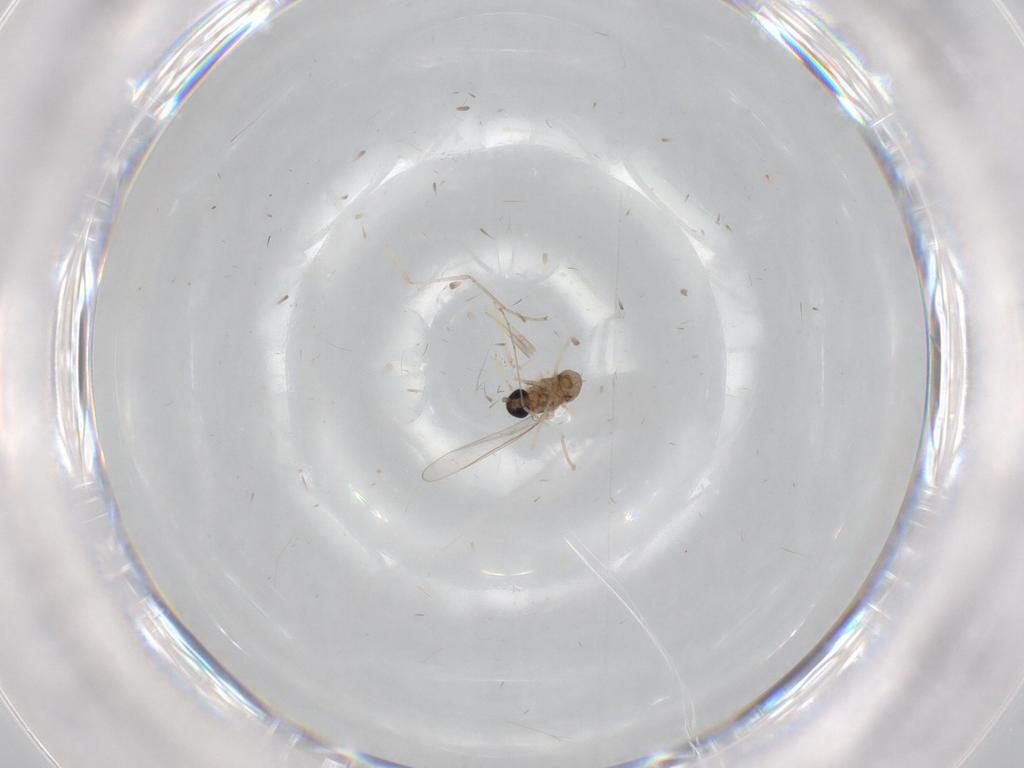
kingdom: Animalia
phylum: Arthropoda
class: Insecta
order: Diptera
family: Cecidomyiidae
